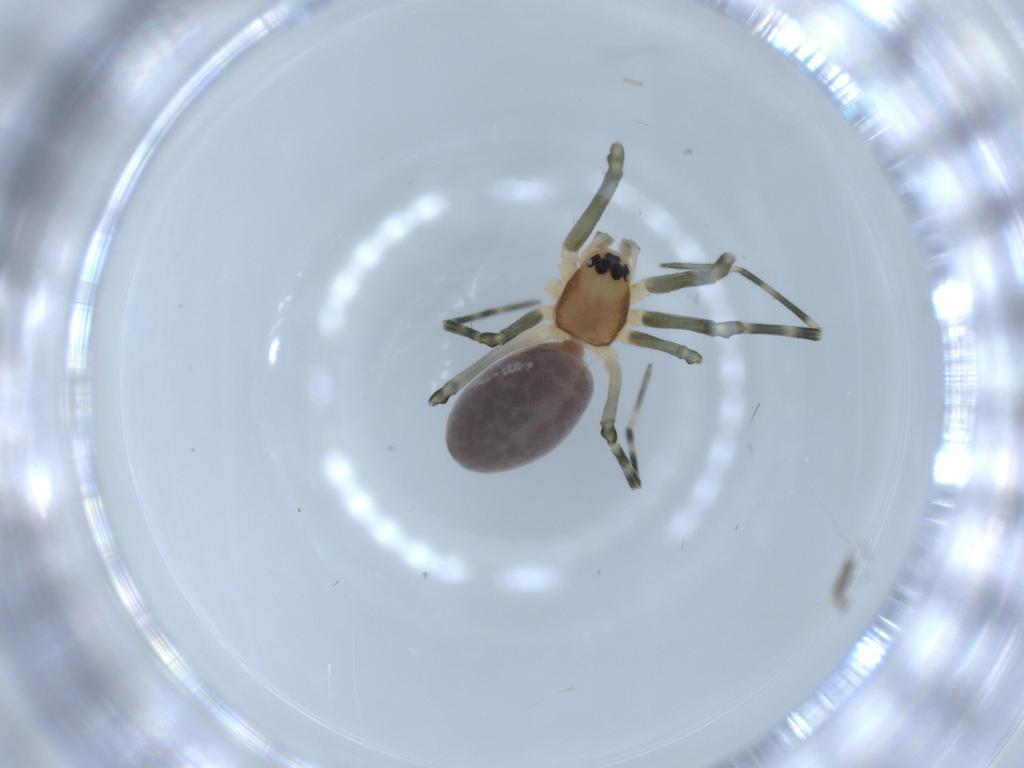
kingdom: Animalia
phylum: Arthropoda
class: Arachnida
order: Araneae
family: Linyphiidae
